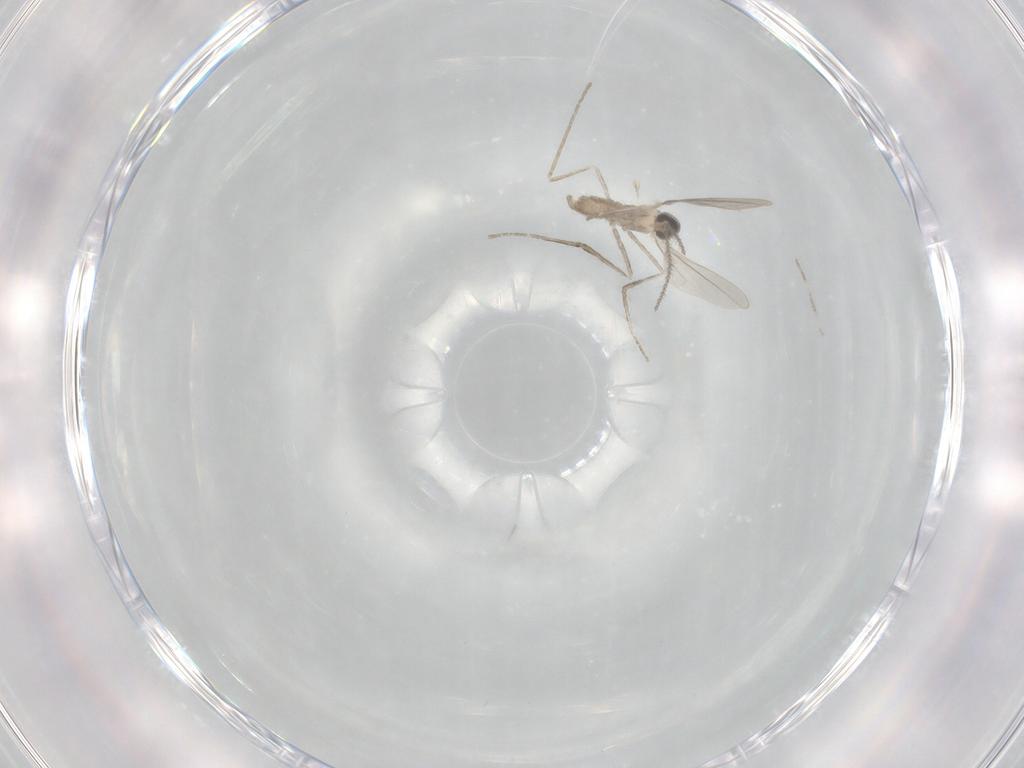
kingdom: Animalia
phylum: Arthropoda
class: Insecta
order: Diptera
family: Cecidomyiidae
